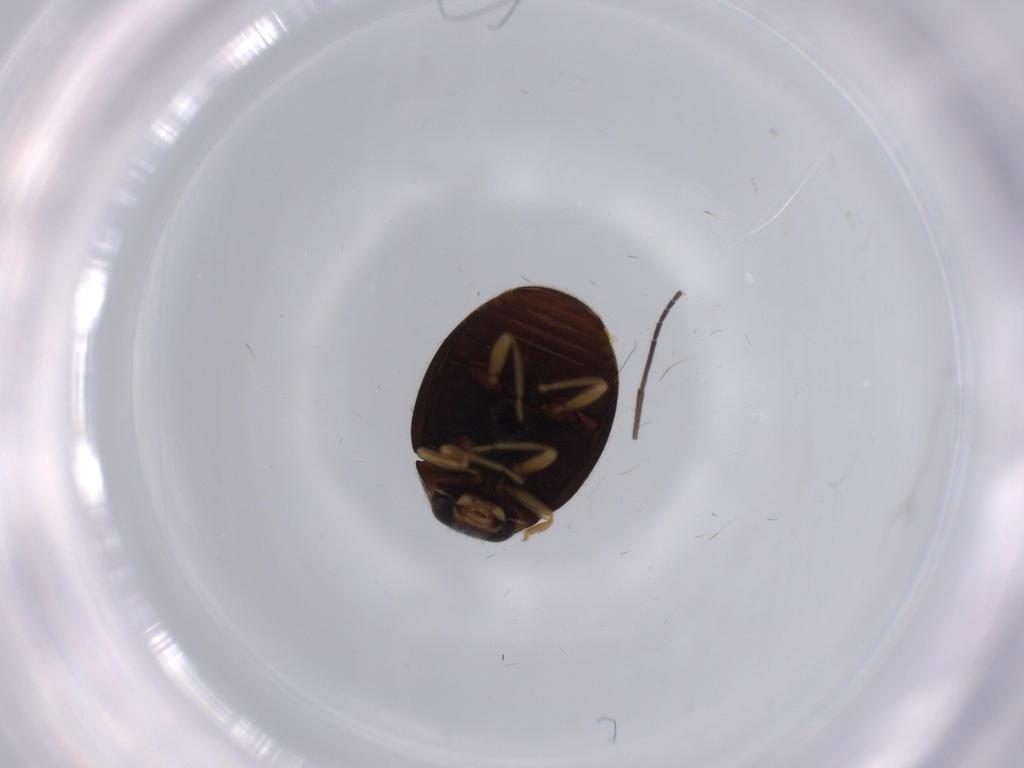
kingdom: Animalia
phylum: Arthropoda
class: Insecta
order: Coleoptera
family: Coccinellidae
